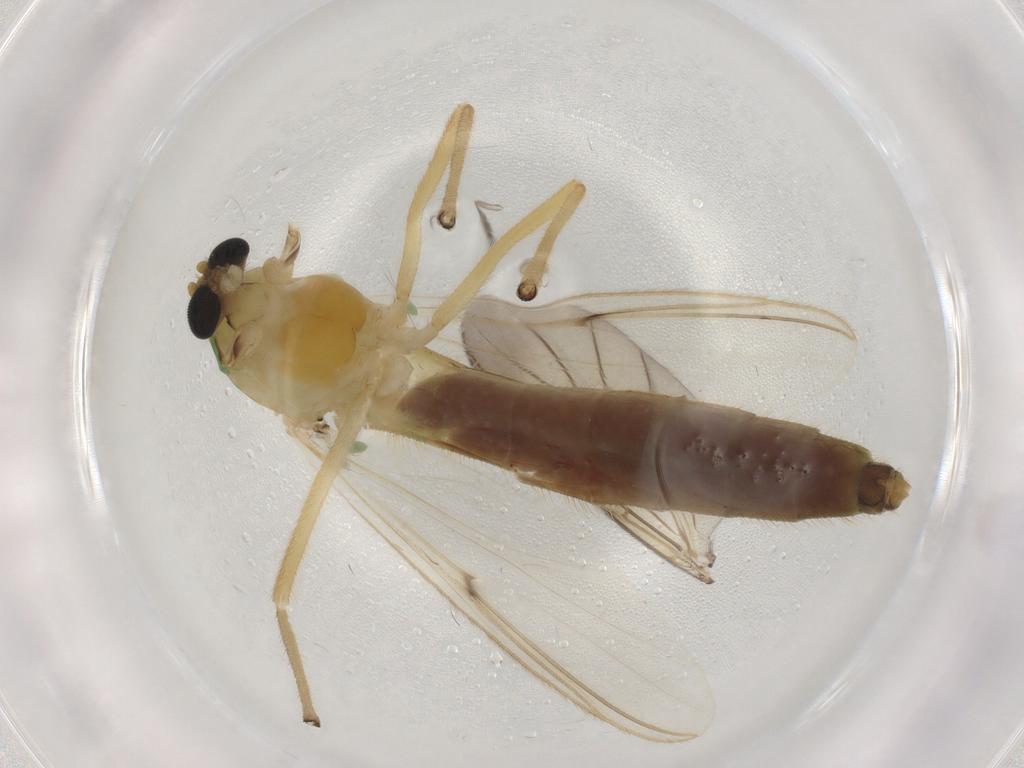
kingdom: Animalia
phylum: Arthropoda
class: Insecta
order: Diptera
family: Chironomidae
